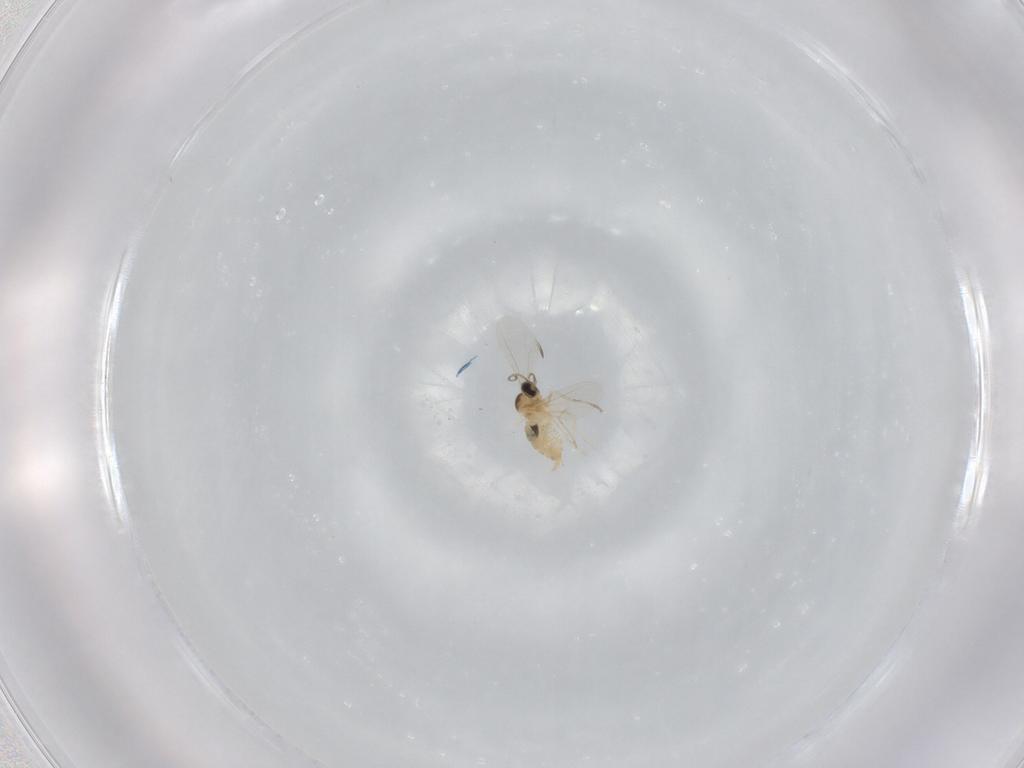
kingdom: Animalia
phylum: Arthropoda
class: Insecta
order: Diptera
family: Cecidomyiidae
